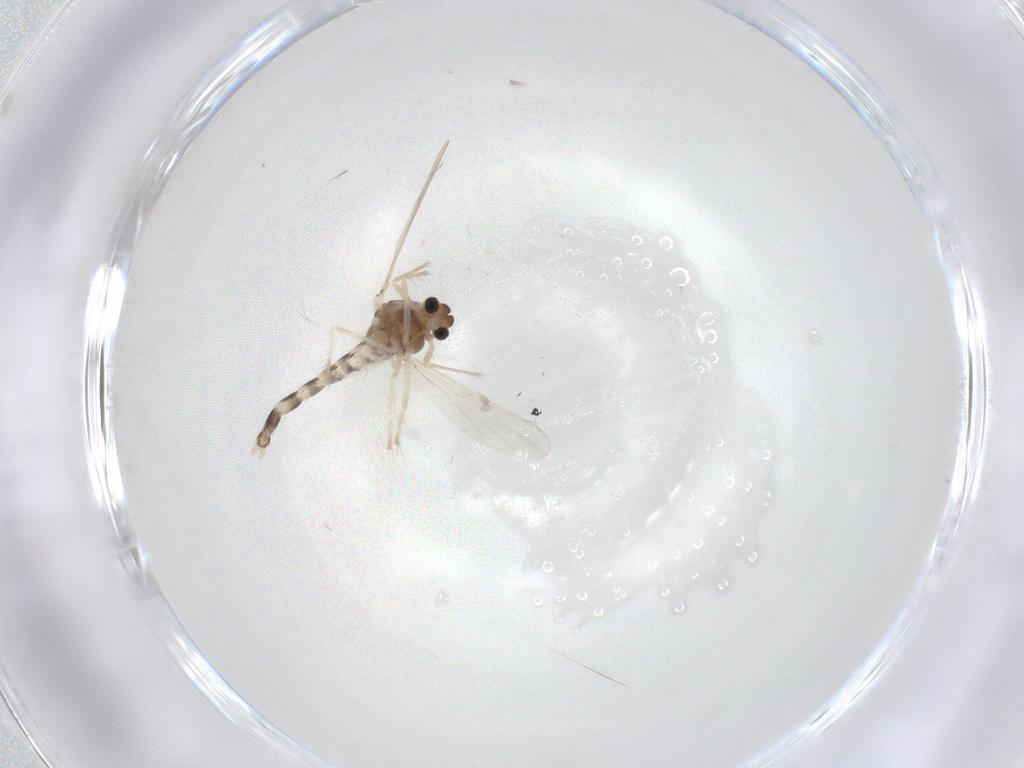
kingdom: Animalia
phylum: Arthropoda
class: Insecta
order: Diptera
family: Chironomidae
